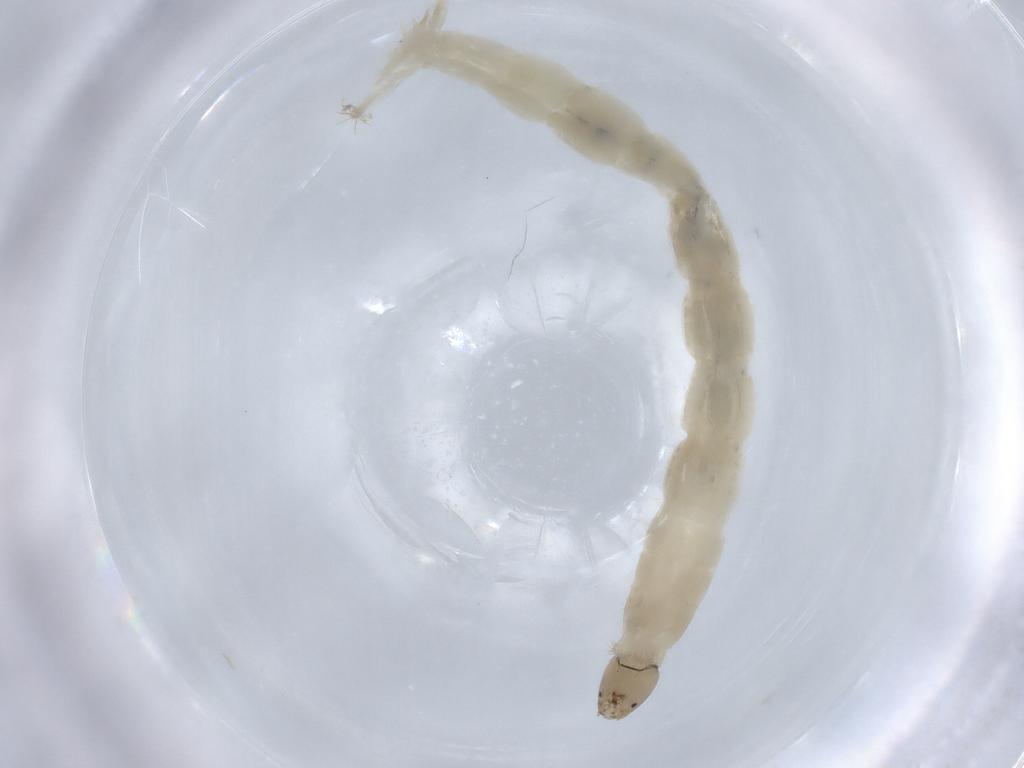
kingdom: Animalia
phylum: Arthropoda
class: Insecta
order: Diptera
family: Chironomidae
